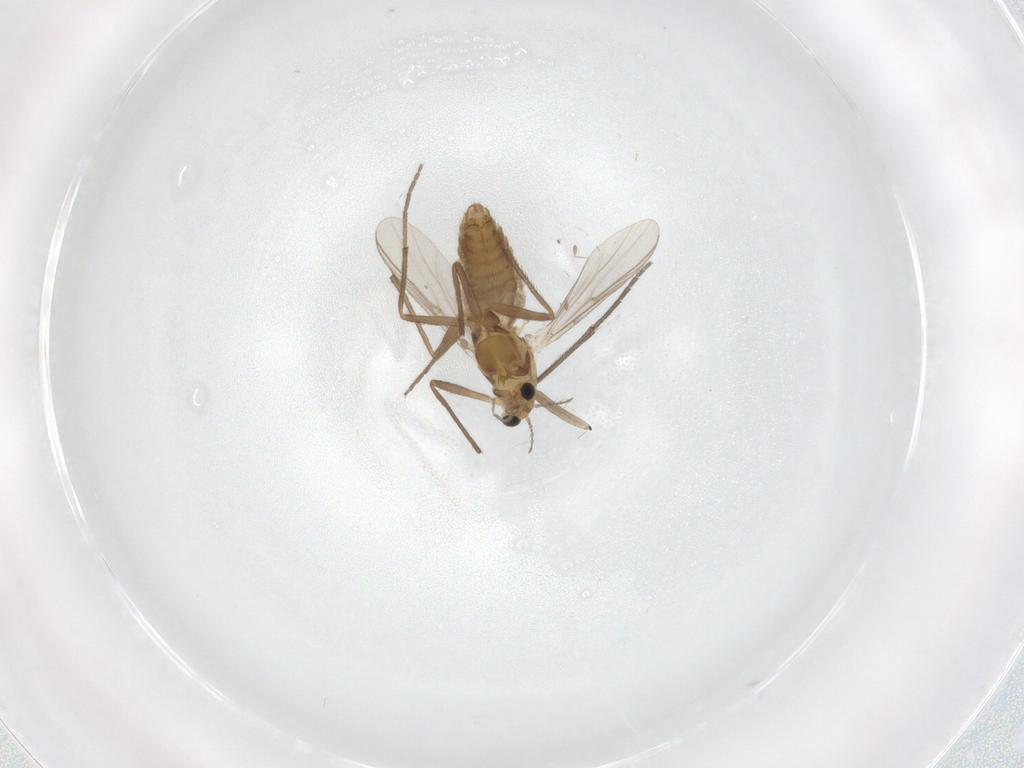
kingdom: Animalia
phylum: Arthropoda
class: Insecta
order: Diptera
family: Chironomidae
